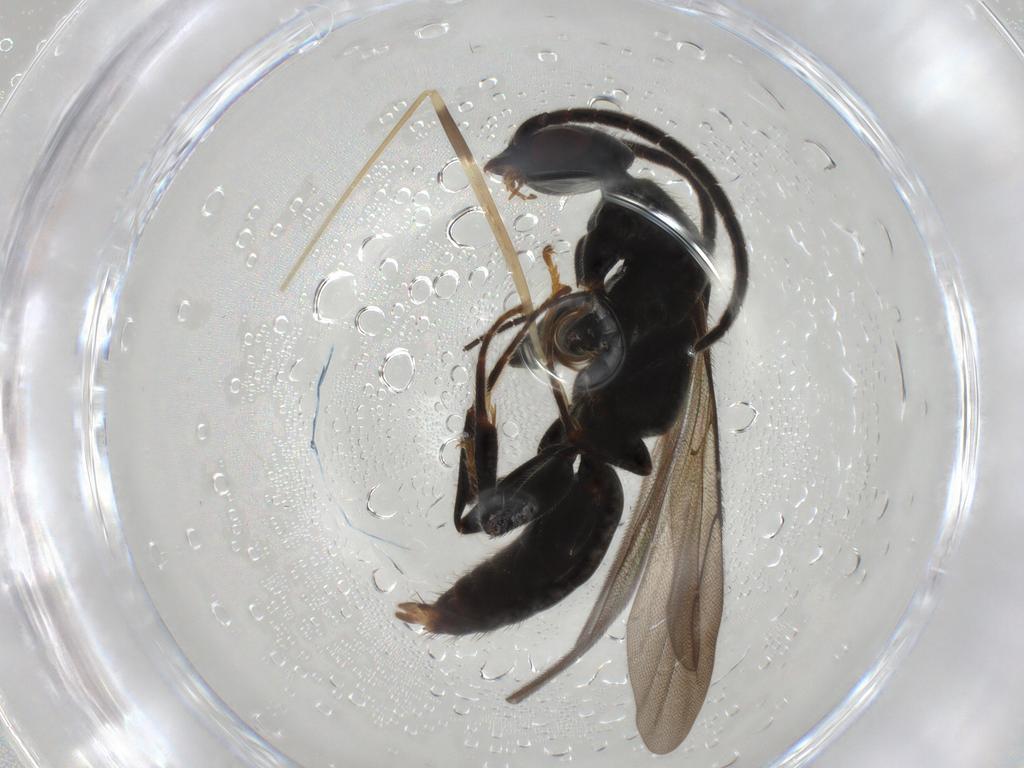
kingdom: Animalia
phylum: Arthropoda
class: Insecta
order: Hymenoptera
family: Bethylidae
